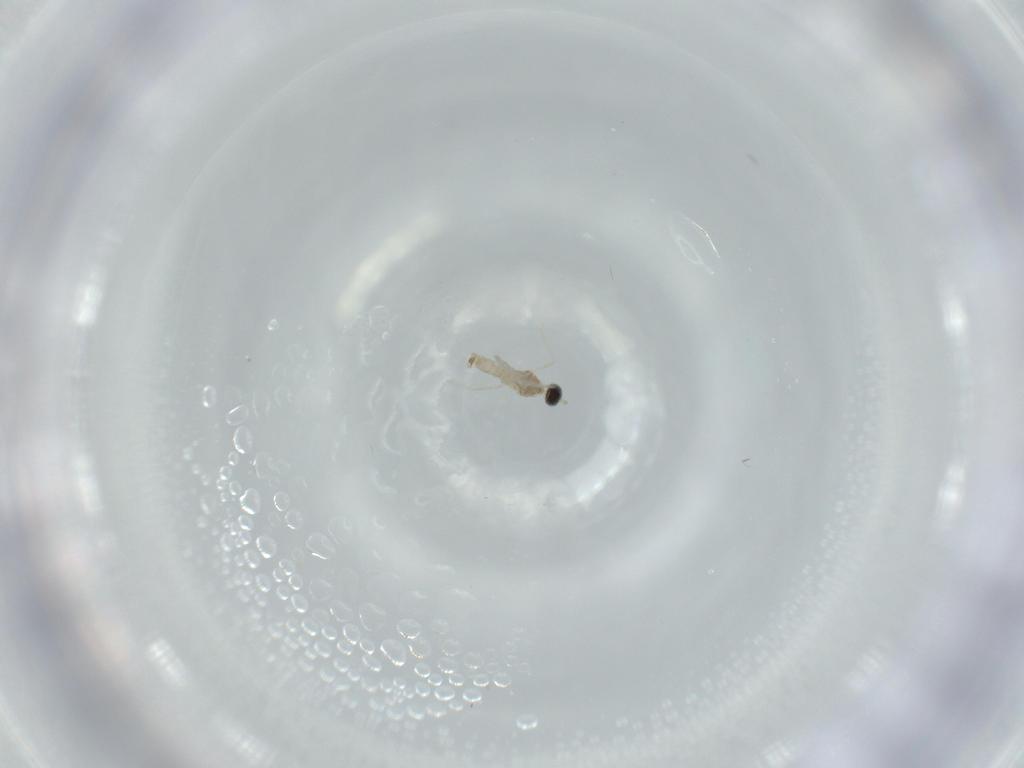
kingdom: Animalia
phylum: Arthropoda
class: Insecta
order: Diptera
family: Cecidomyiidae
